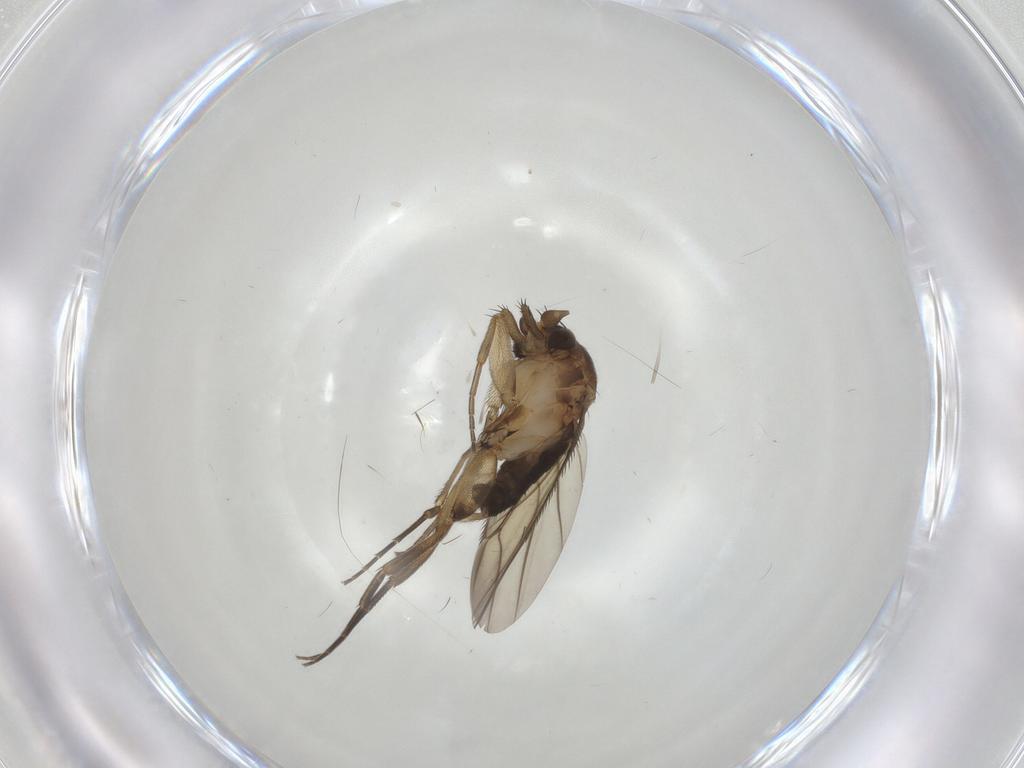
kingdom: Animalia
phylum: Arthropoda
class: Insecta
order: Diptera
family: Phoridae
